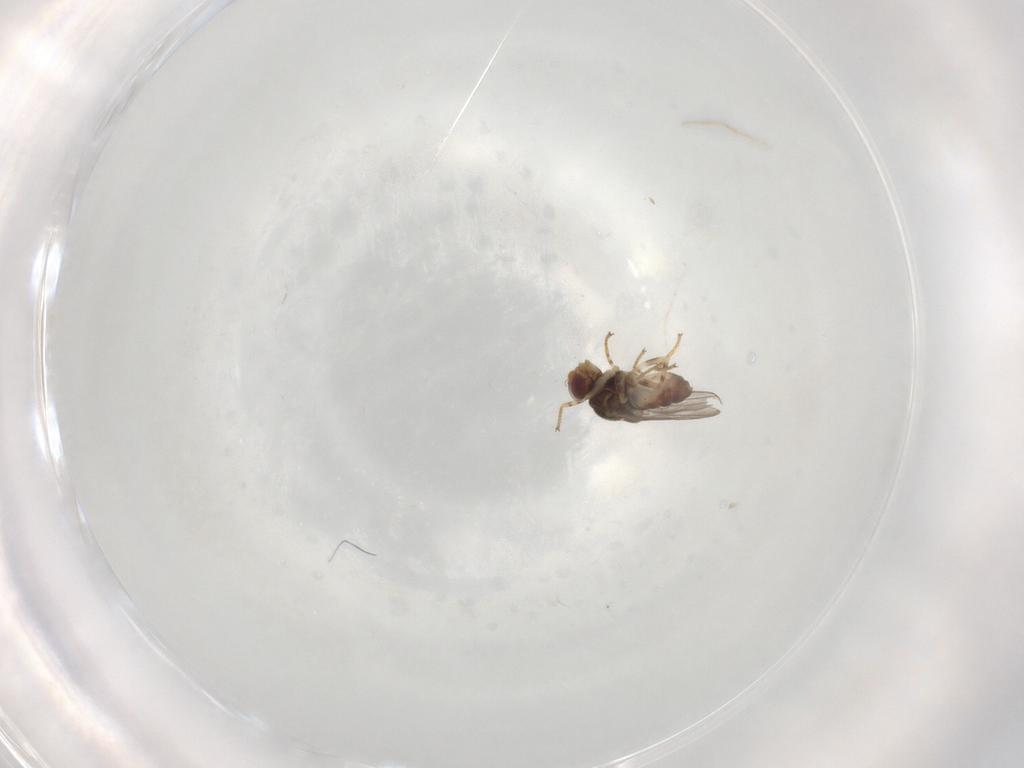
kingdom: Animalia
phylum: Arthropoda
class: Insecta
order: Diptera
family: Chloropidae
